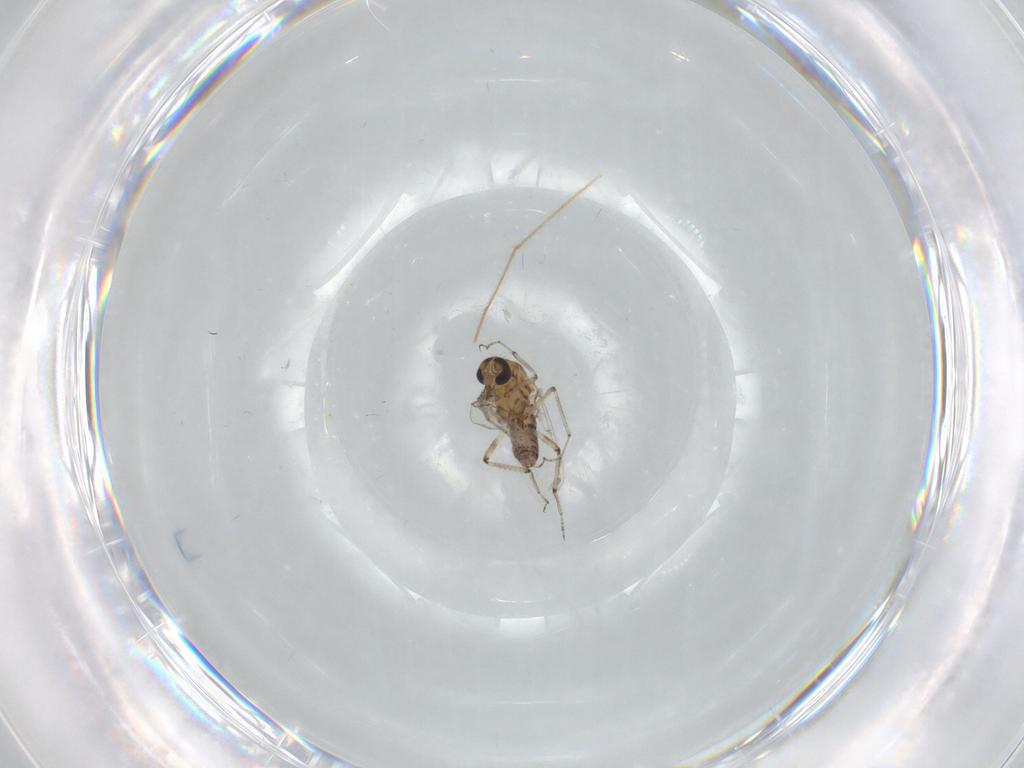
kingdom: Animalia
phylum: Arthropoda
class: Insecta
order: Diptera
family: Ceratopogonidae
